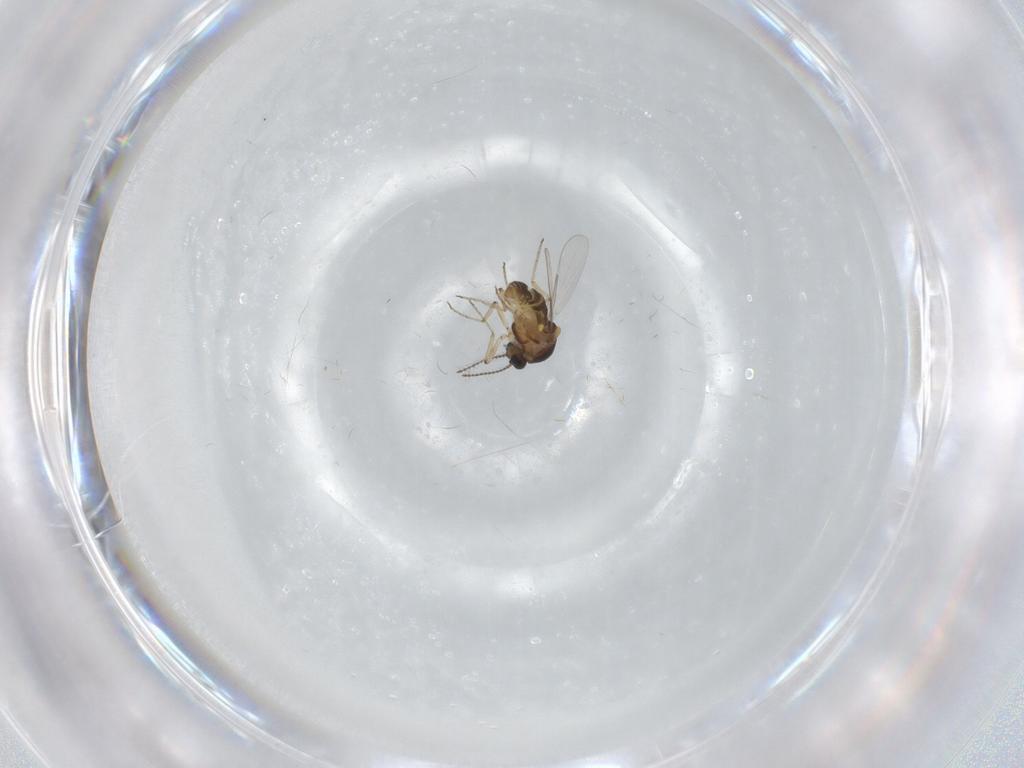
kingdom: Animalia
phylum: Arthropoda
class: Insecta
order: Diptera
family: Ceratopogonidae
